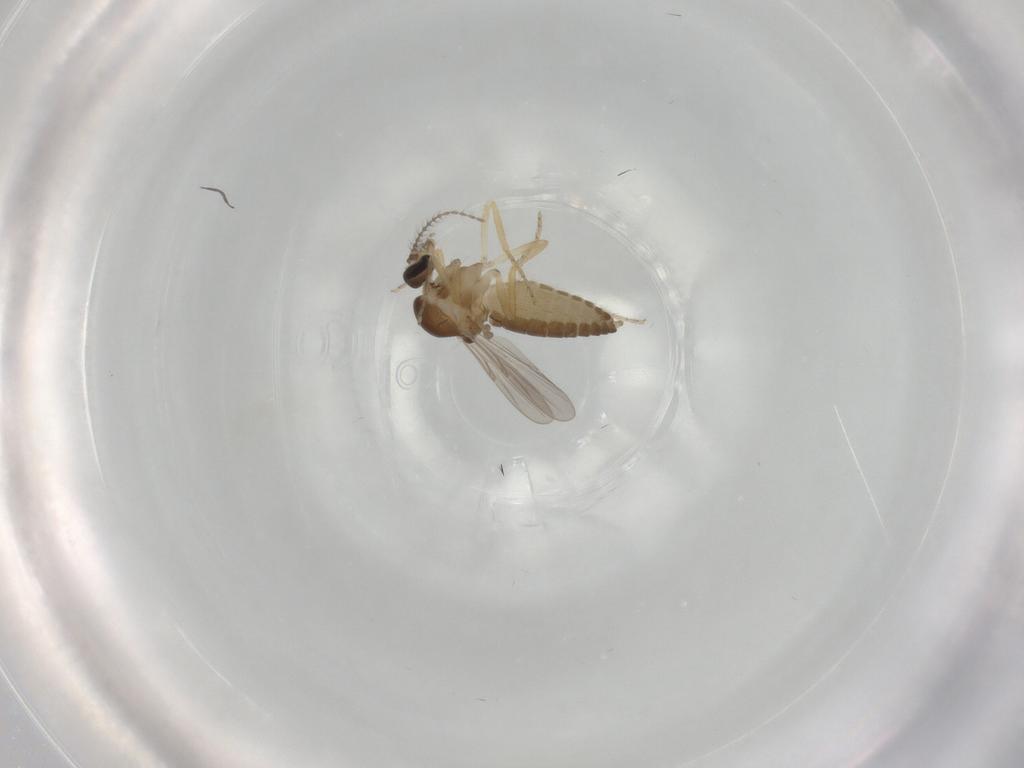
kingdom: Animalia
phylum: Arthropoda
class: Insecta
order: Diptera
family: Ceratopogonidae
